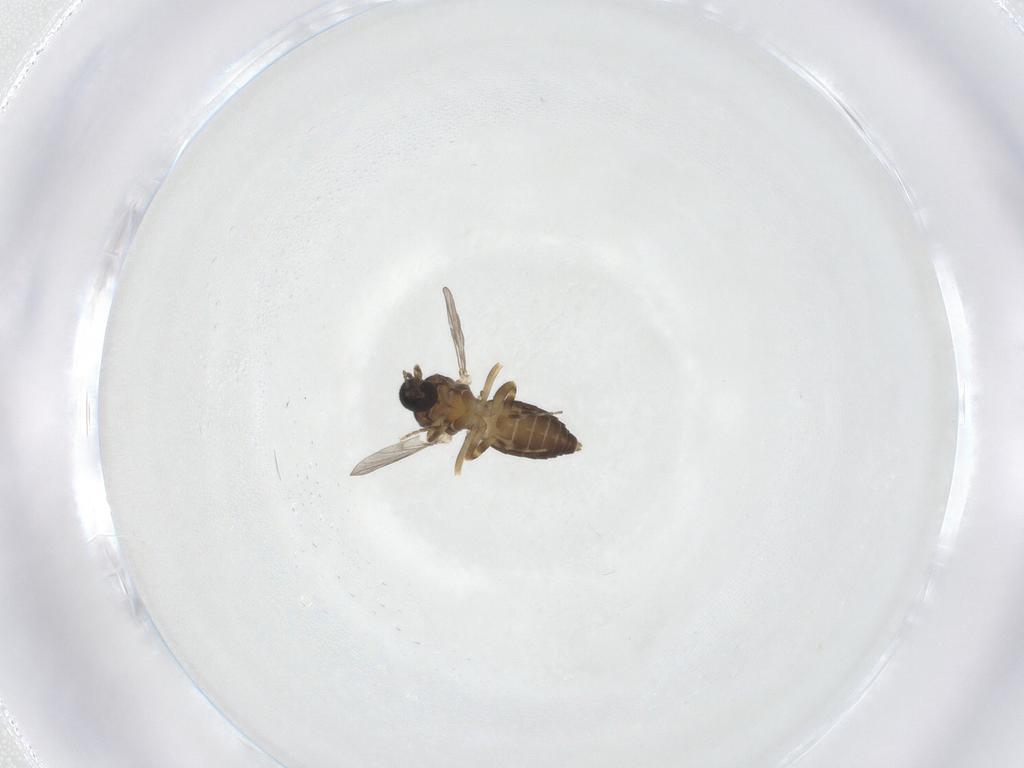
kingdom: Animalia
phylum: Arthropoda
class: Insecta
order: Diptera
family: Ceratopogonidae
